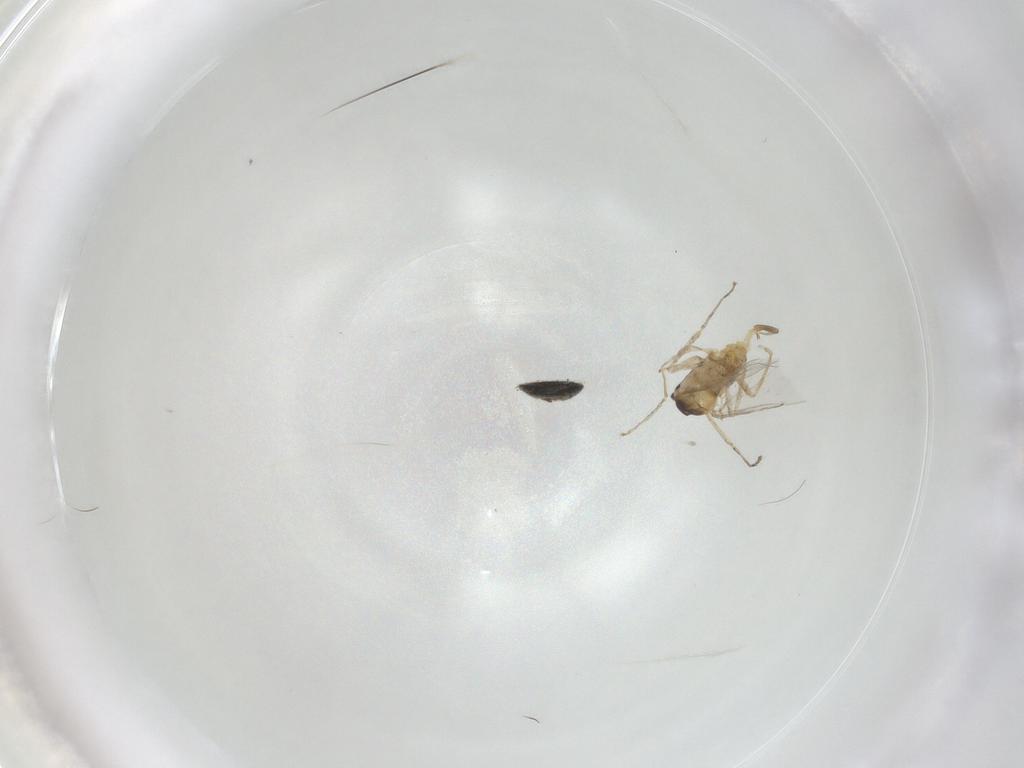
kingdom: Animalia
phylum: Arthropoda
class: Insecta
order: Diptera
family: Cecidomyiidae
